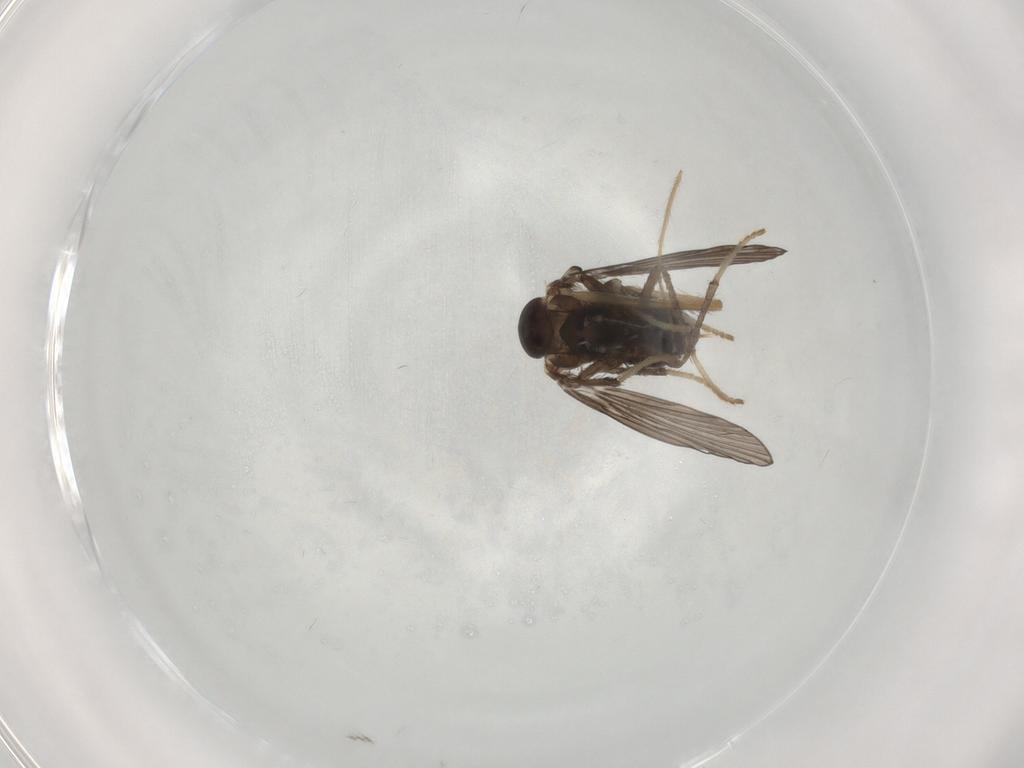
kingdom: Animalia
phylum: Arthropoda
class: Insecta
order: Diptera
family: Psychodidae
